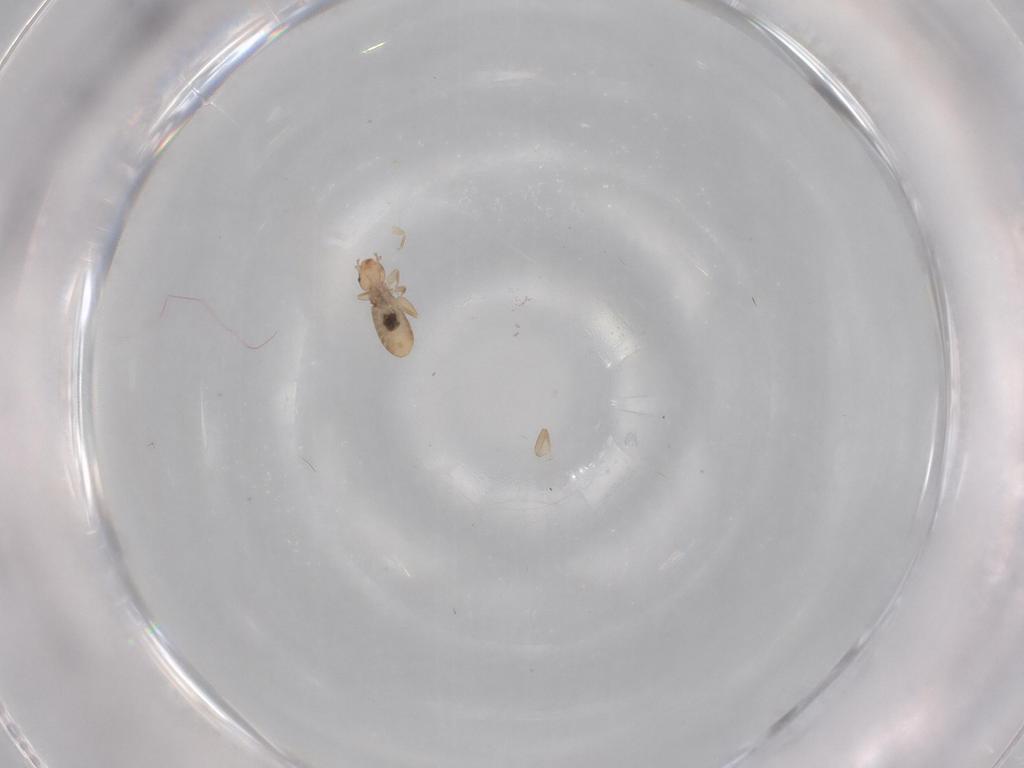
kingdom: Animalia
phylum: Arthropoda
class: Insecta
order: Psocodea
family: Liposcelididae
